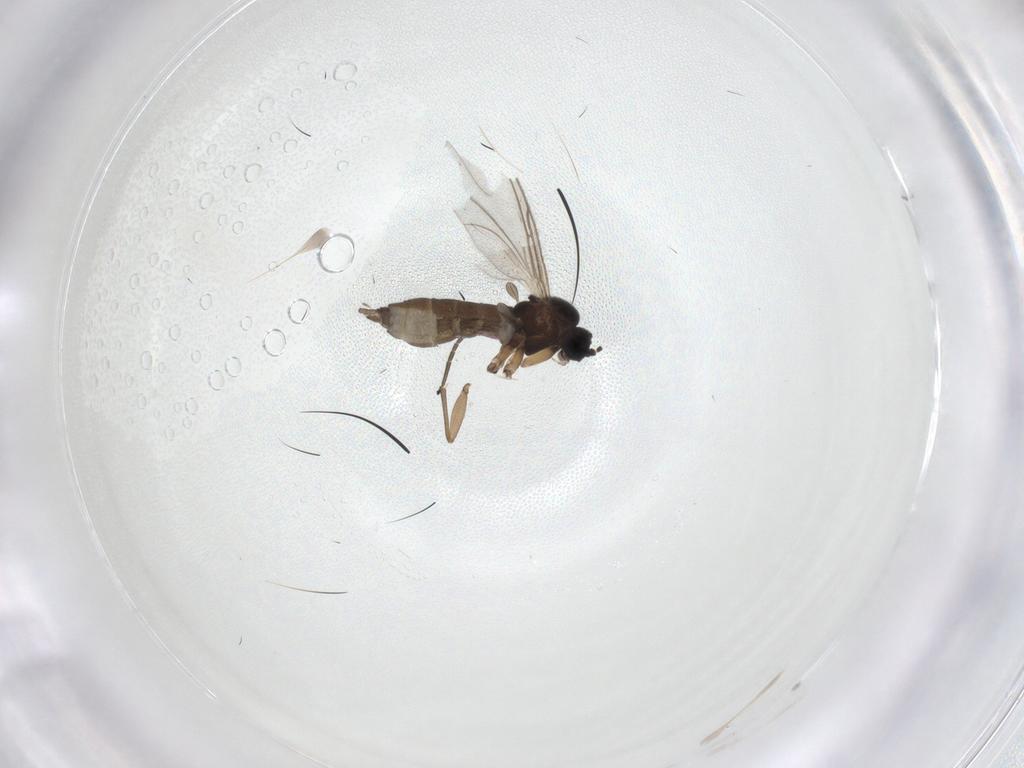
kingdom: Animalia
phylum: Arthropoda
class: Insecta
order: Diptera
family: Sciaridae
